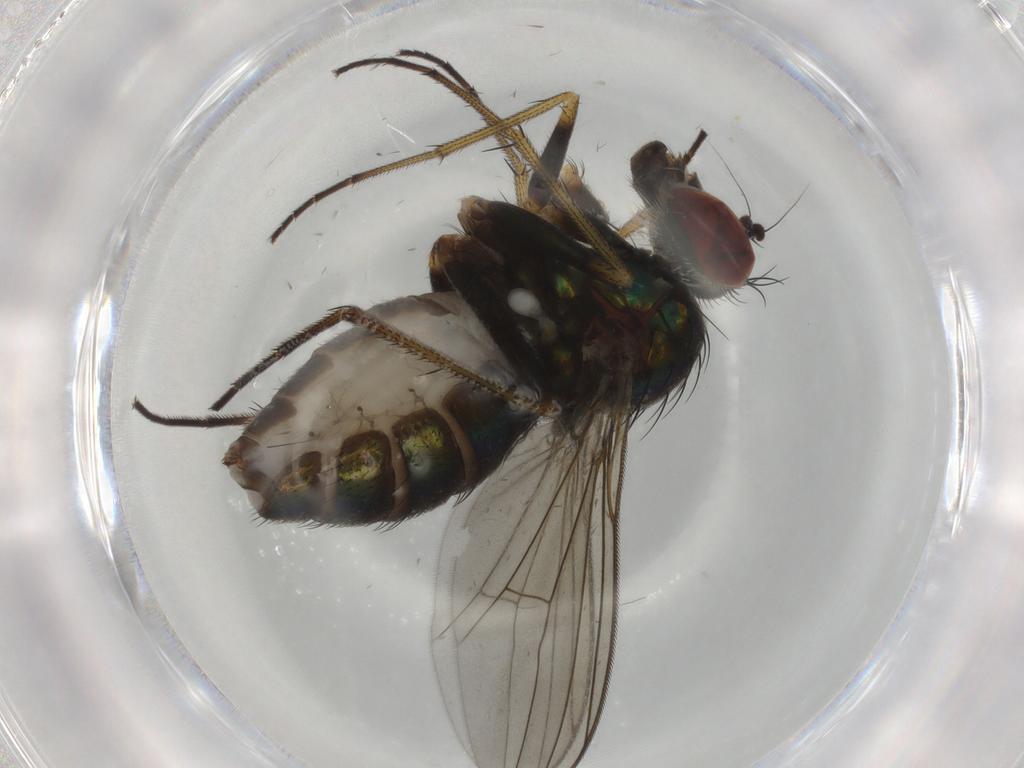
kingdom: Animalia
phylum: Arthropoda
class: Insecta
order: Diptera
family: Dolichopodidae
